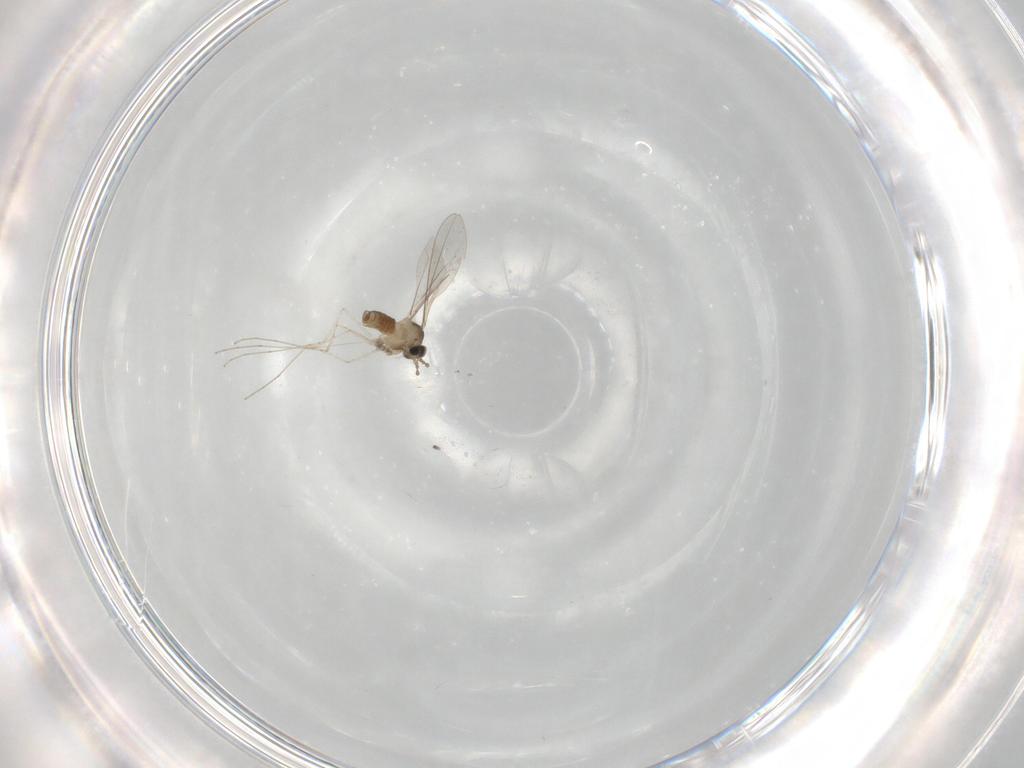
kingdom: Animalia
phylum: Arthropoda
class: Insecta
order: Diptera
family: Cecidomyiidae
